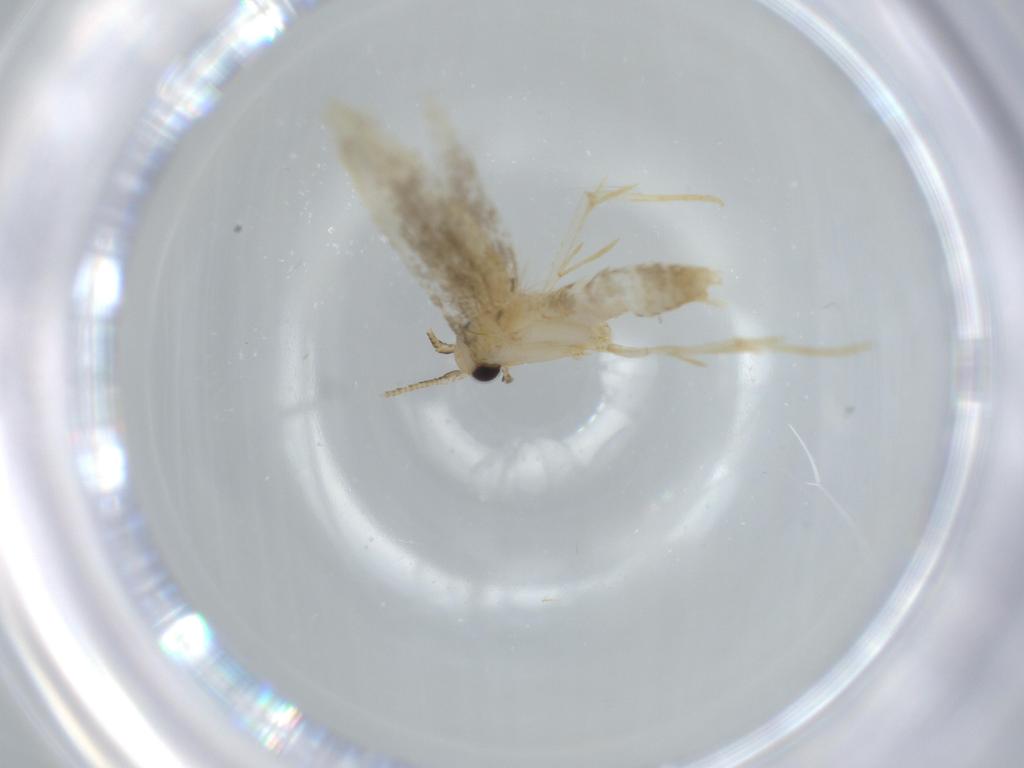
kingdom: Animalia
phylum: Arthropoda
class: Insecta
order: Lepidoptera
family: Tineidae
